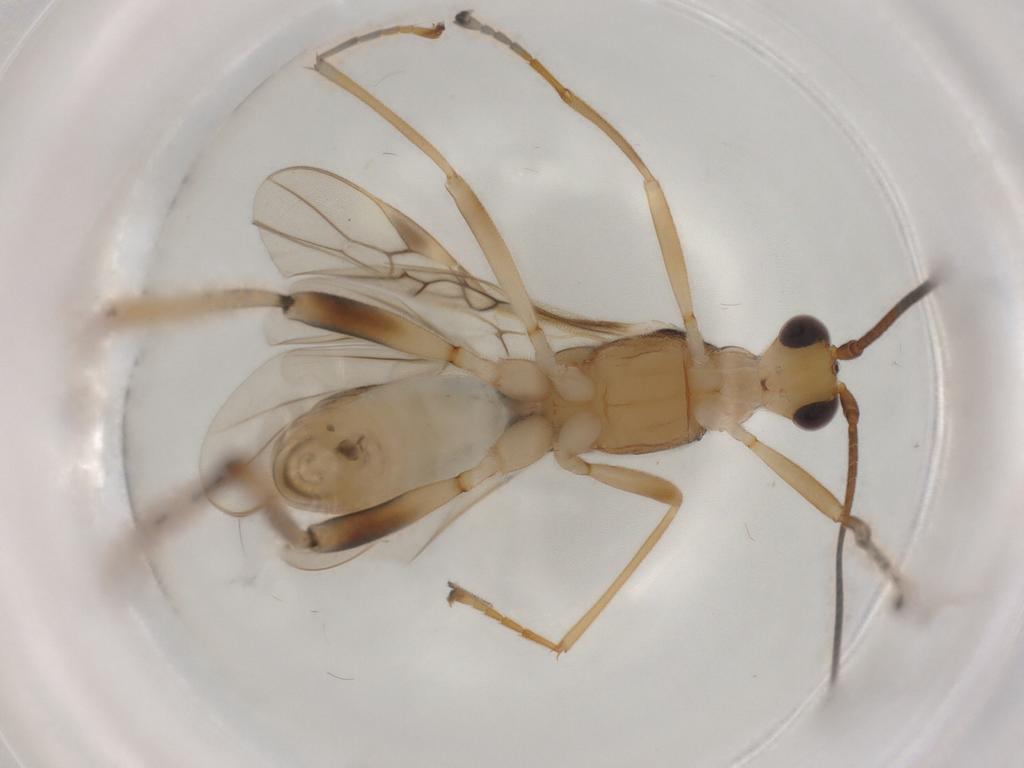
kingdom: Animalia
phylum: Arthropoda
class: Insecta
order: Hymenoptera
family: Braconidae
